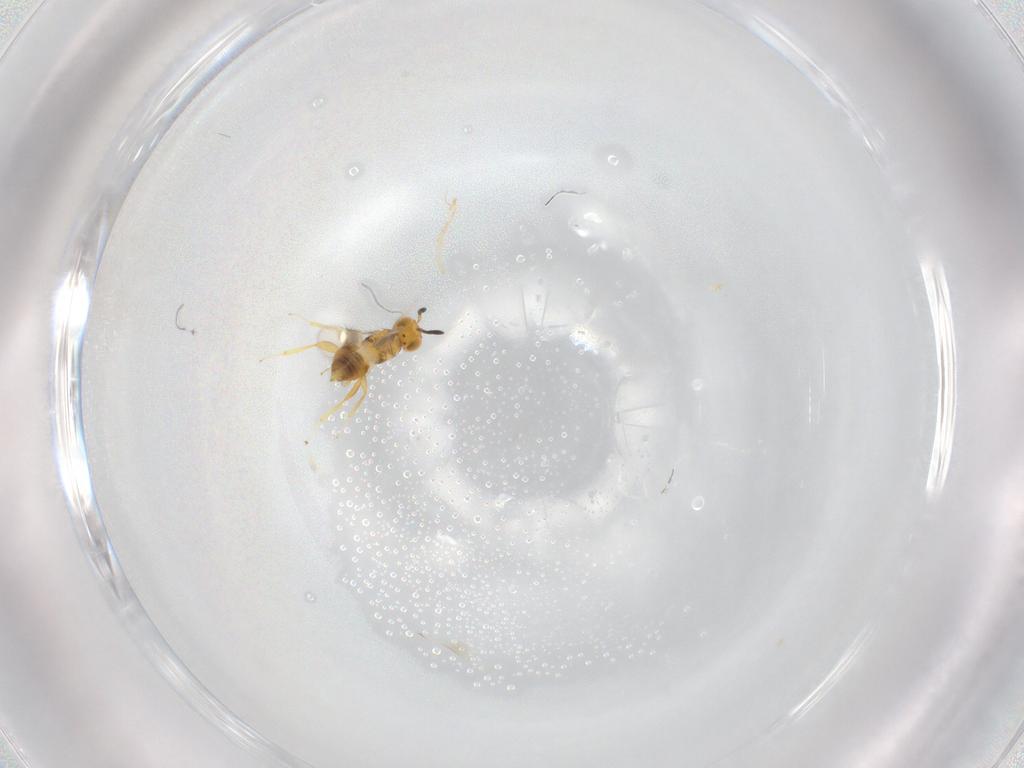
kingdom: Animalia
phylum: Arthropoda
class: Insecta
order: Hymenoptera
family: Encyrtidae
